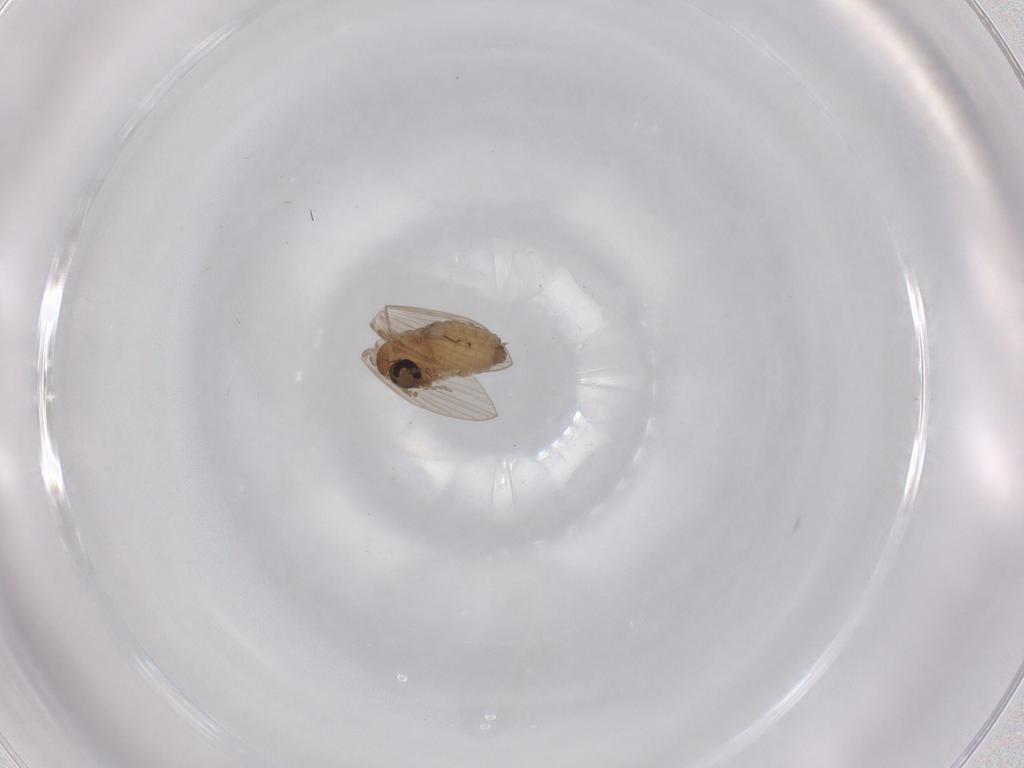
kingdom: Animalia
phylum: Arthropoda
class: Insecta
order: Diptera
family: Psychodidae
